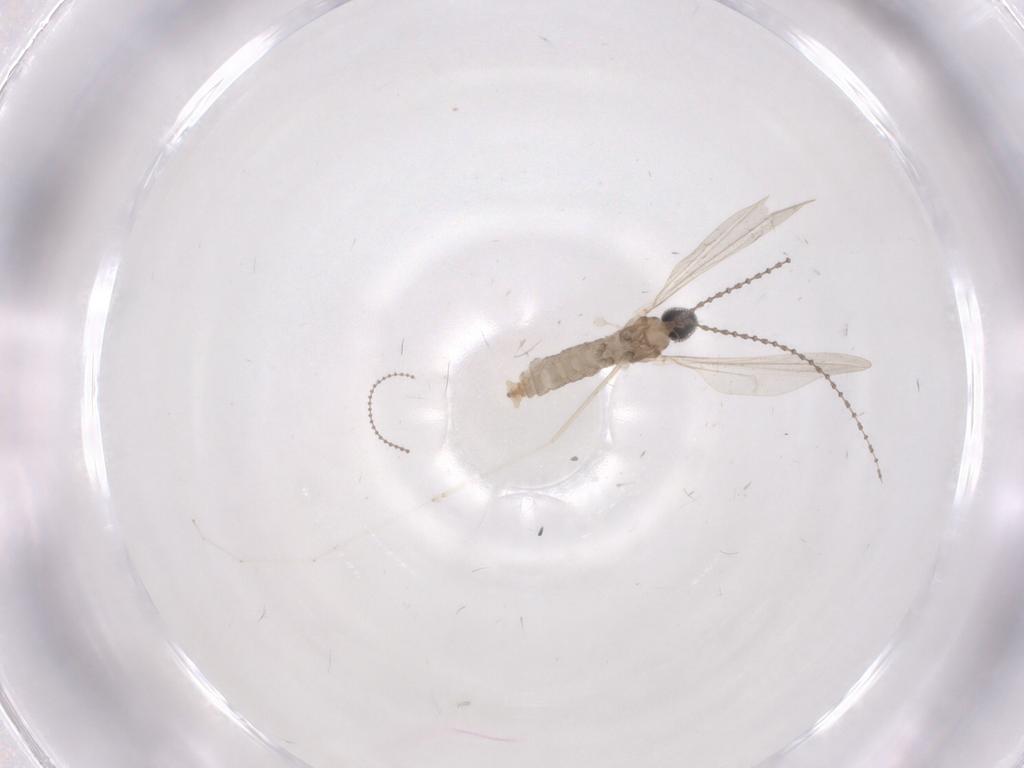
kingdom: Animalia
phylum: Arthropoda
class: Insecta
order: Diptera
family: Cecidomyiidae
